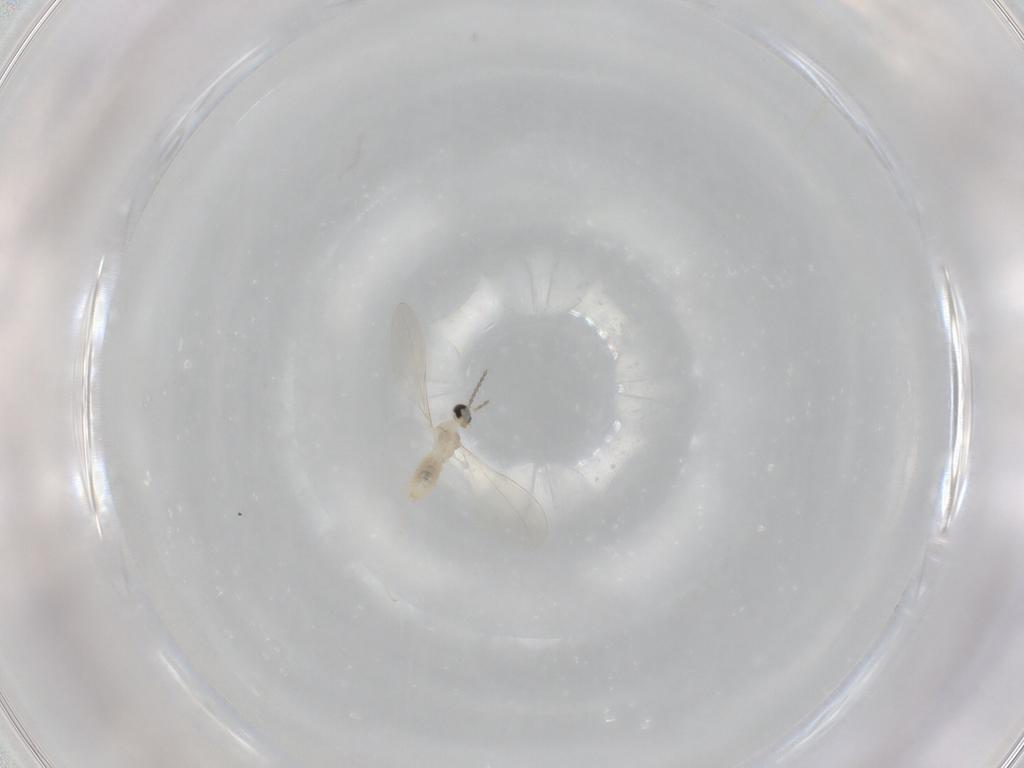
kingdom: Animalia
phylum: Arthropoda
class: Insecta
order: Diptera
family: Cecidomyiidae
